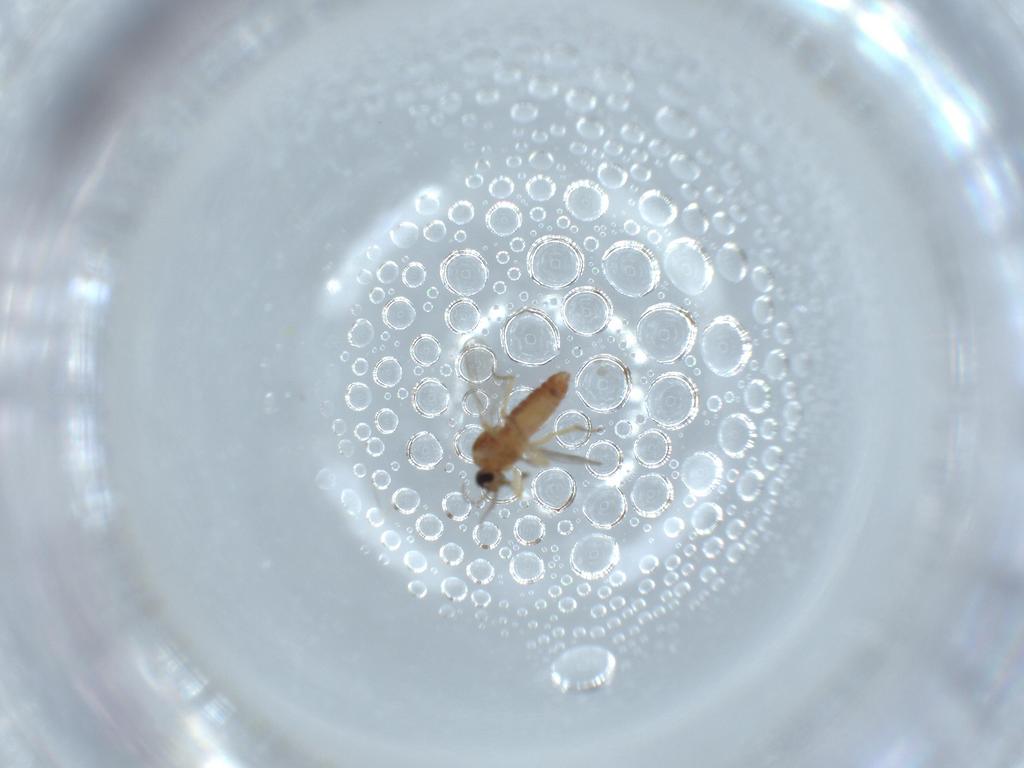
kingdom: Animalia
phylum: Arthropoda
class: Insecta
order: Diptera
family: Ceratopogonidae
